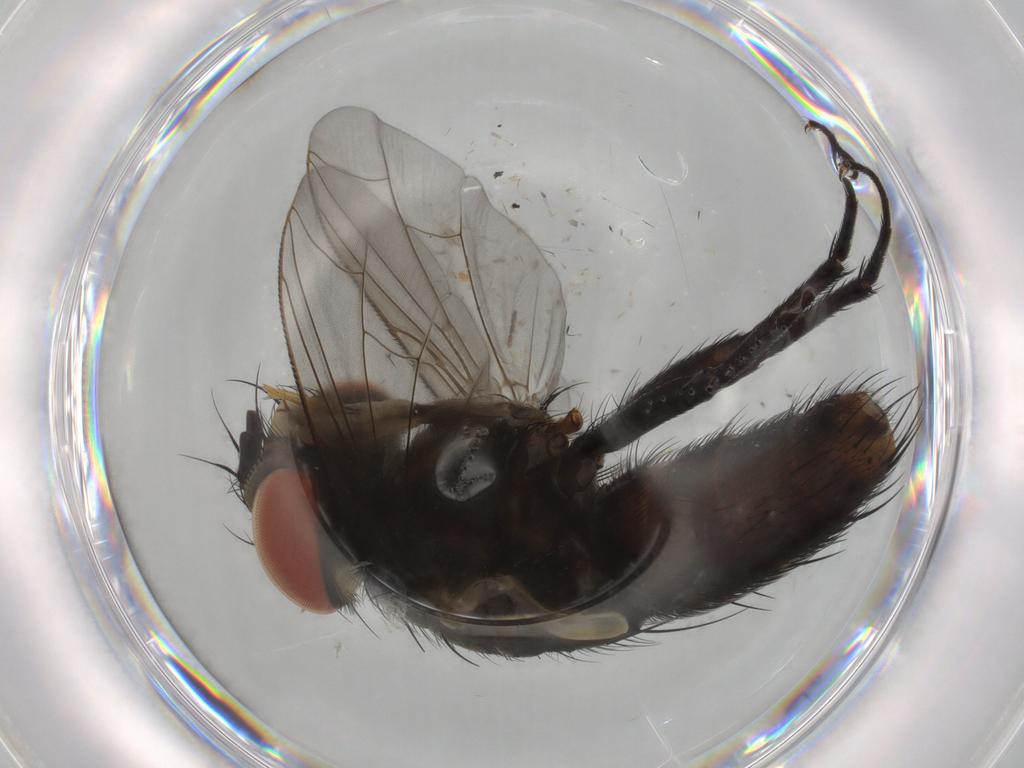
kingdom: Animalia
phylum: Arthropoda
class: Insecta
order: Diptera
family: Sarcophagidae
